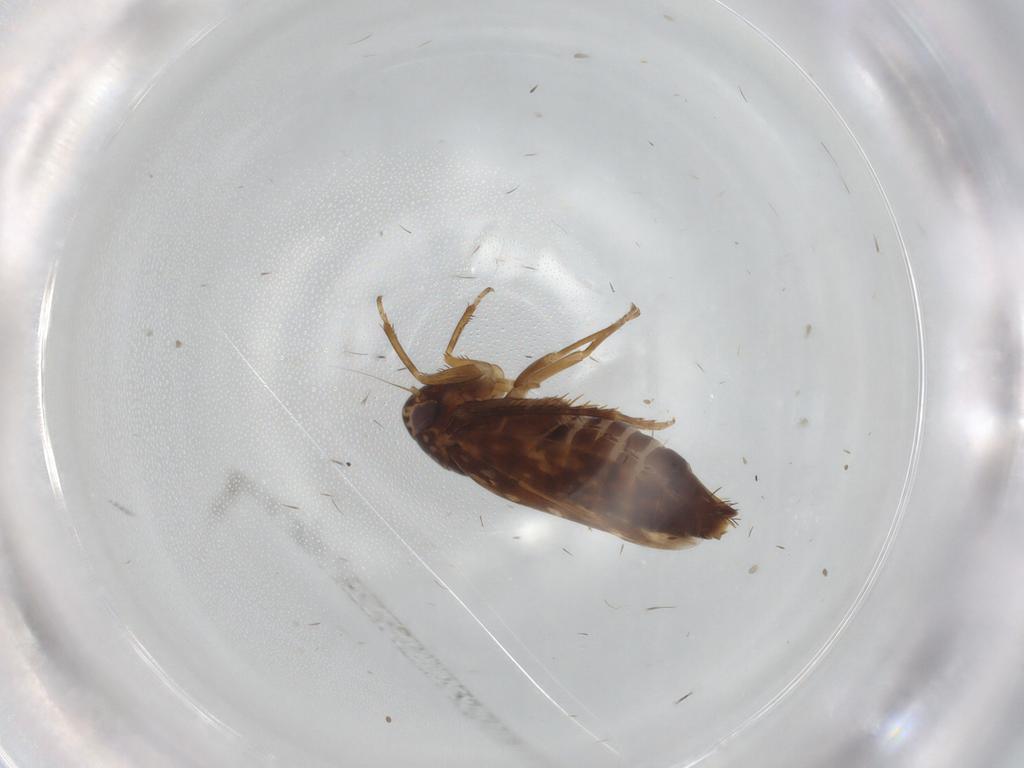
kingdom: Animalia
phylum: Arthropoda
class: Insecta
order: Hemiptera
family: Cicadellidae
